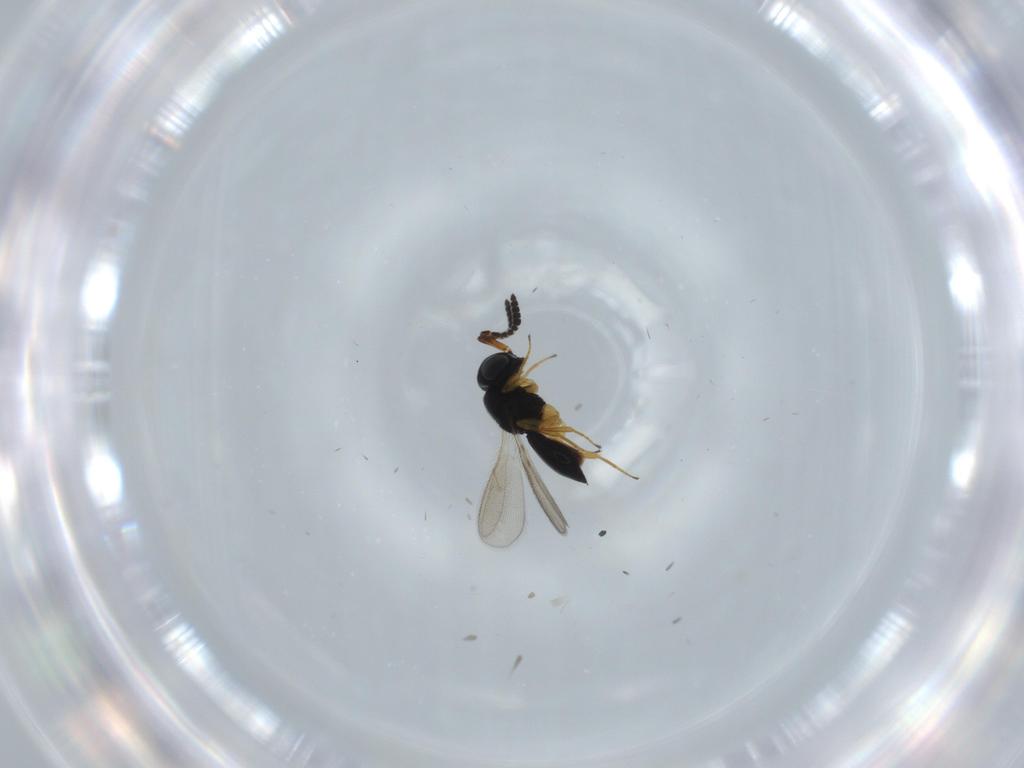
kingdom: Animalia
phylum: Arthropoda
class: Insecta
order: Hymenoptera
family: Scelionidae
